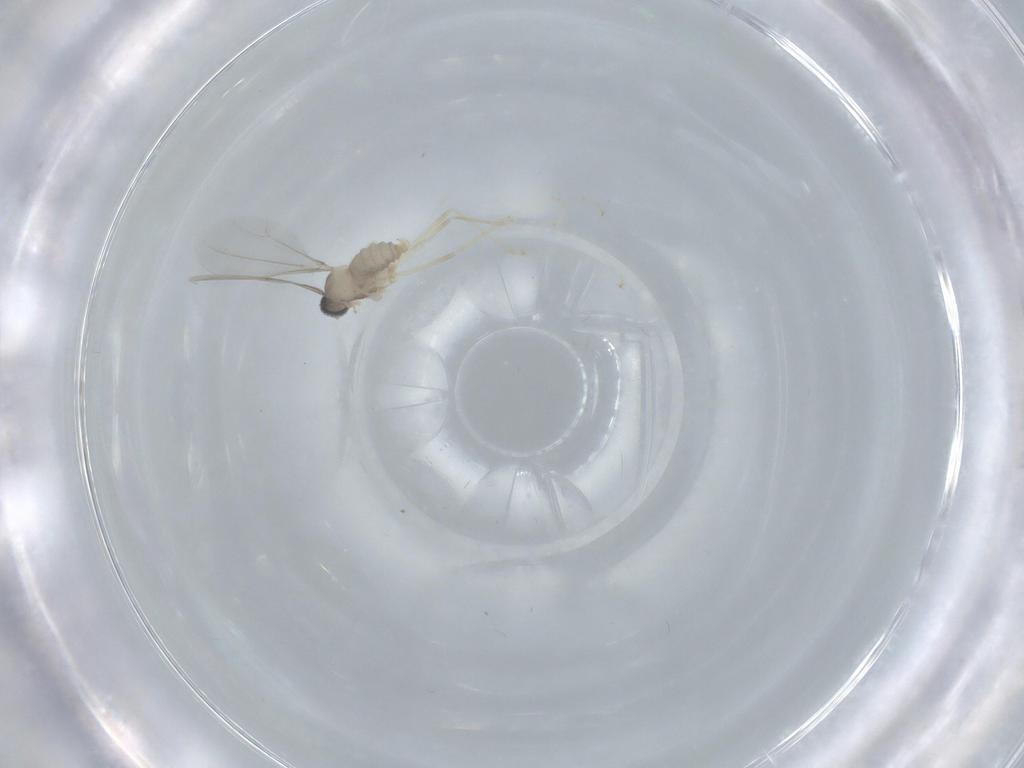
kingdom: Animalia
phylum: Arthropoda
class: Insecta
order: Diptera
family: Cecidomyiidae
